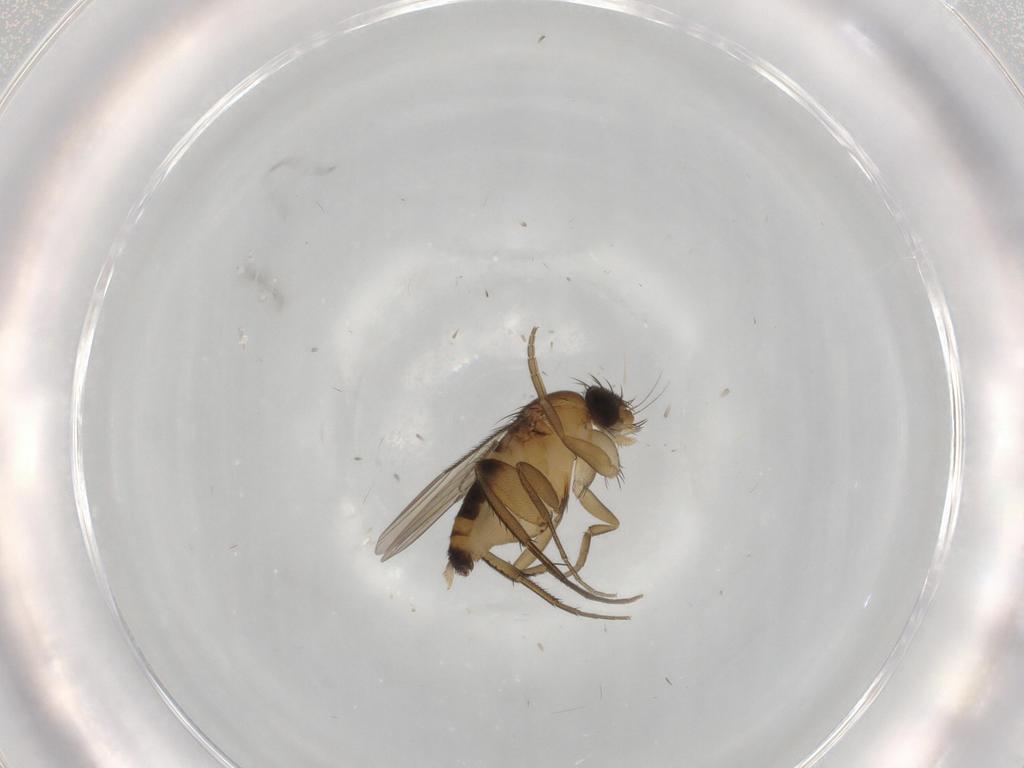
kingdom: Animalia
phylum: Arthropoda
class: Insecta
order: Diptera
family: Phoridae
